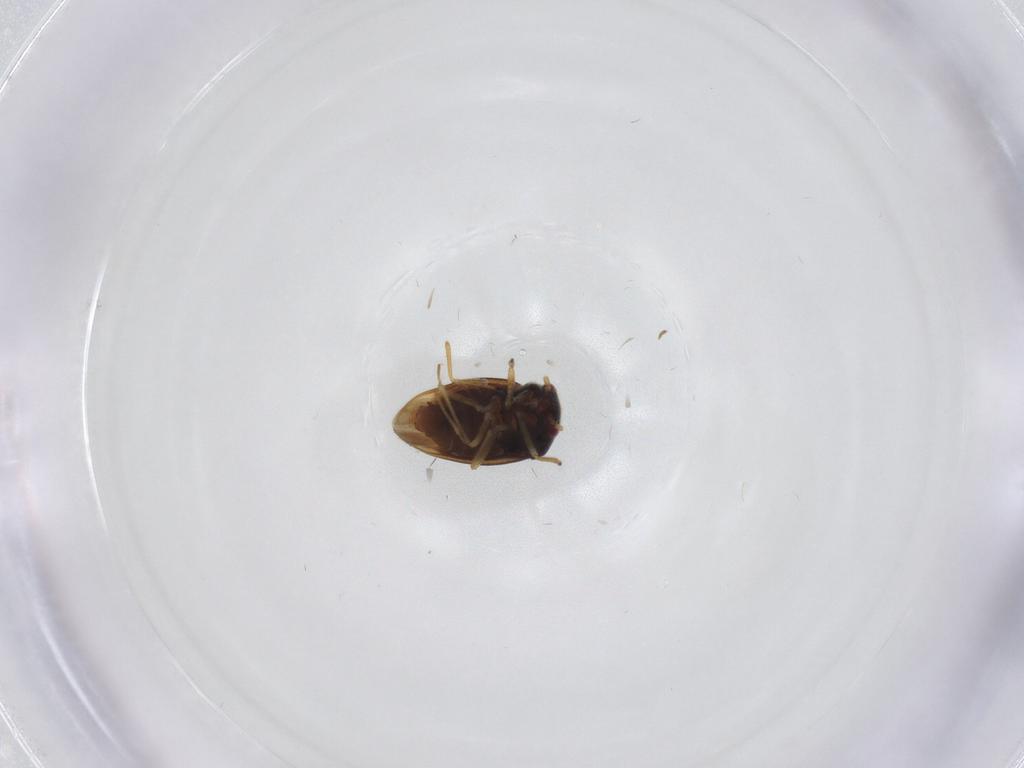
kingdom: Animalia
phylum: Arthropoda
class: Insecta
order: Hemiptera
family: Schizopteridae
